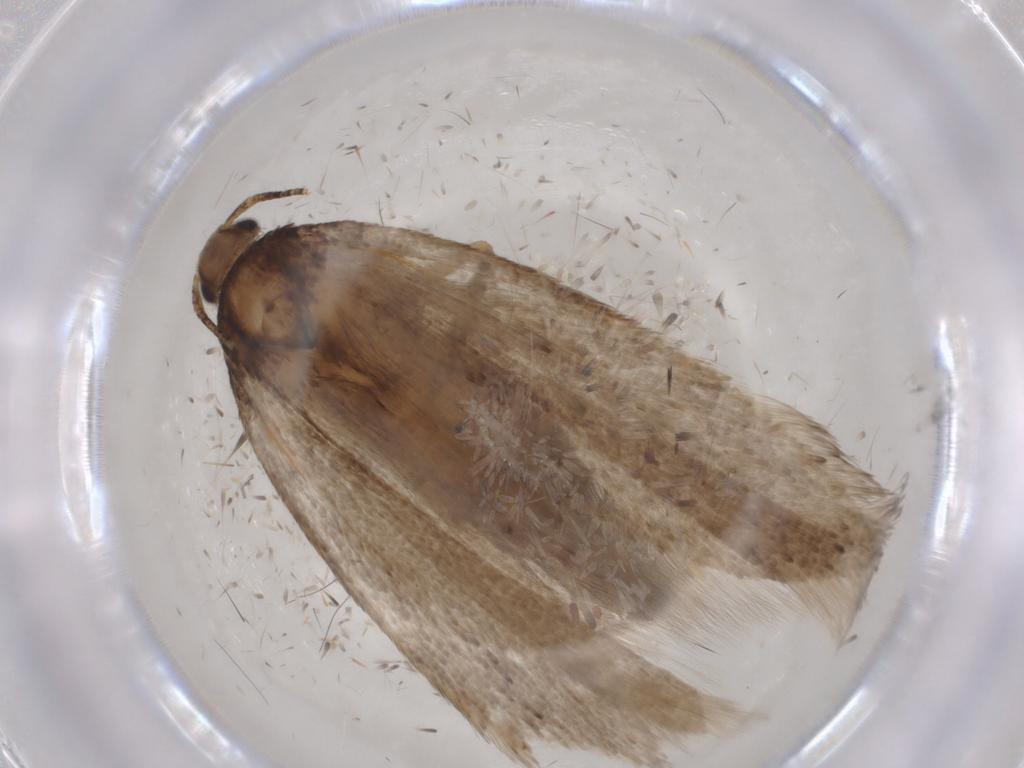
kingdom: Animalia
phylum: Arthropoda
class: Insecta
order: Lepidoptera
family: Gelechiidae
